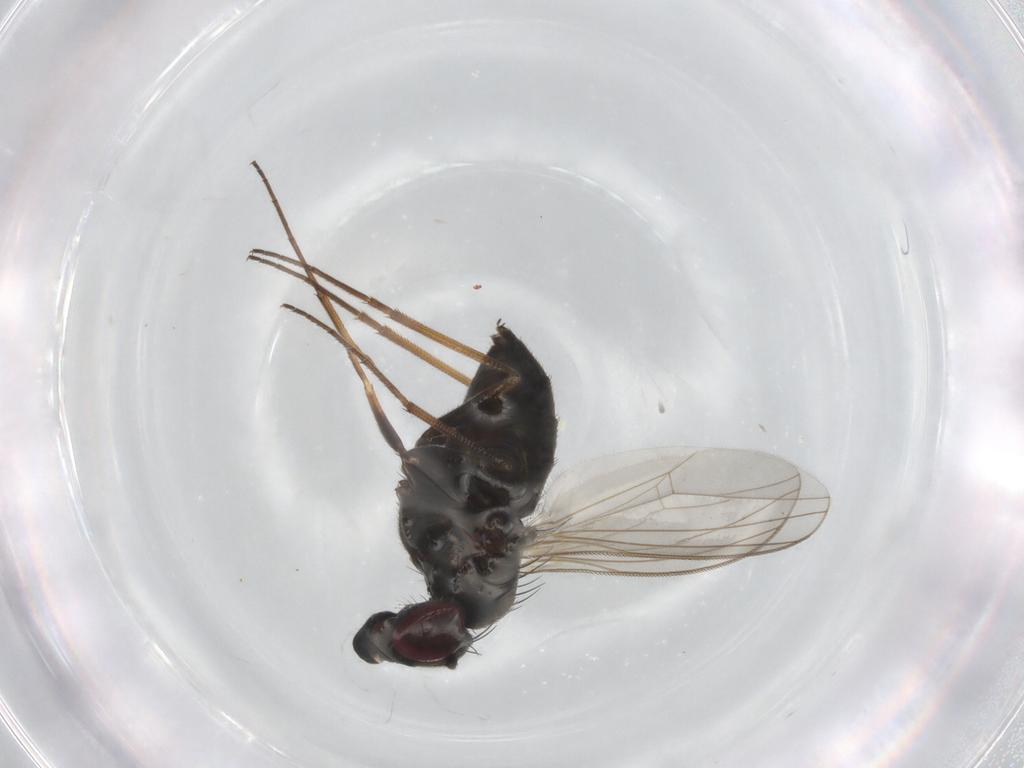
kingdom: Animalia
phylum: Arthropoda
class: Insecta
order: Diptera
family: Dolichopodidae
